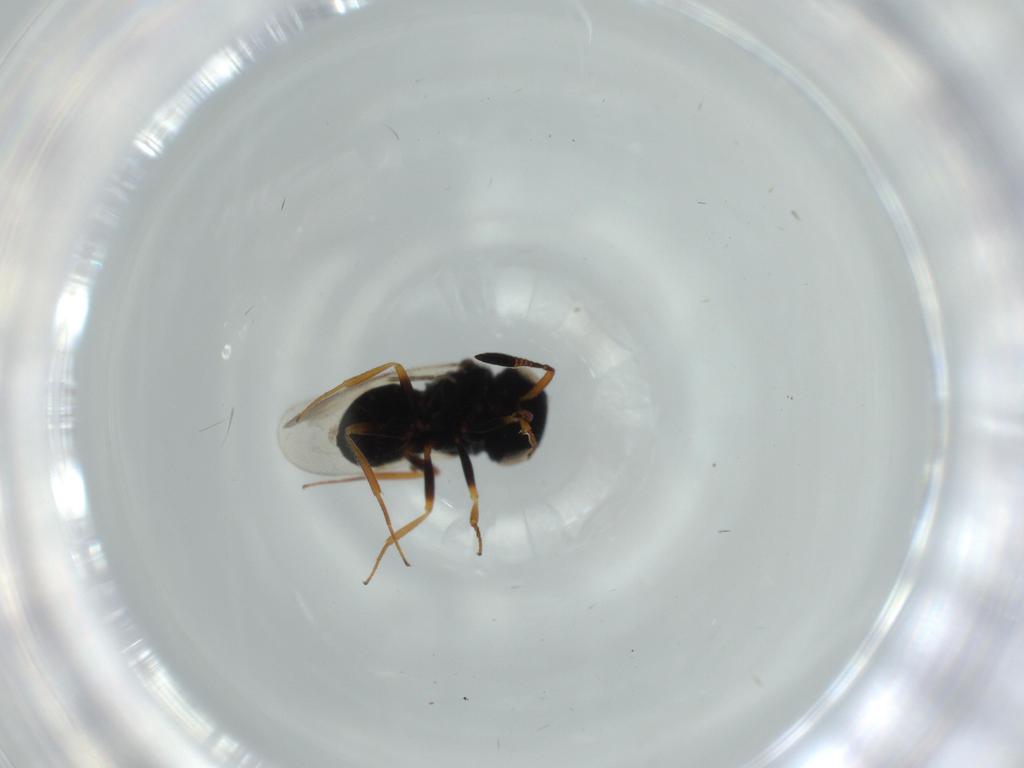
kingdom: Animalia
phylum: Arthropoda
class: Insecta
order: Hymenoptera
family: Scelionidae
